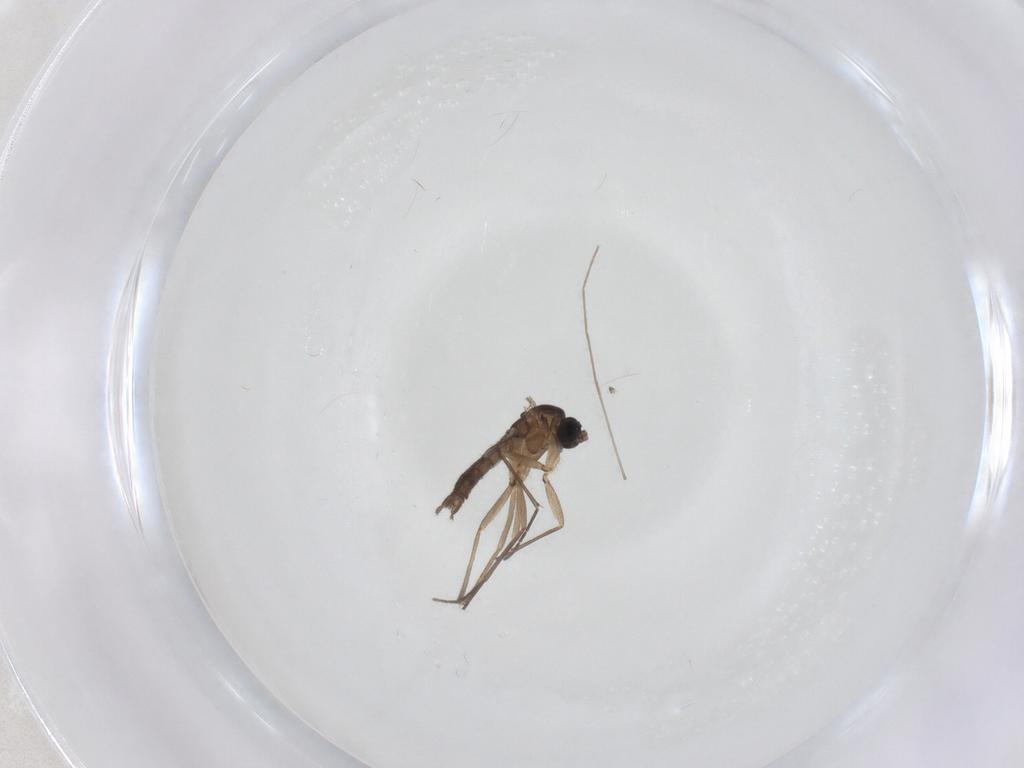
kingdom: Animalia
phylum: Arthropoda
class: Insecta
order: Diptera
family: Sciaridae
